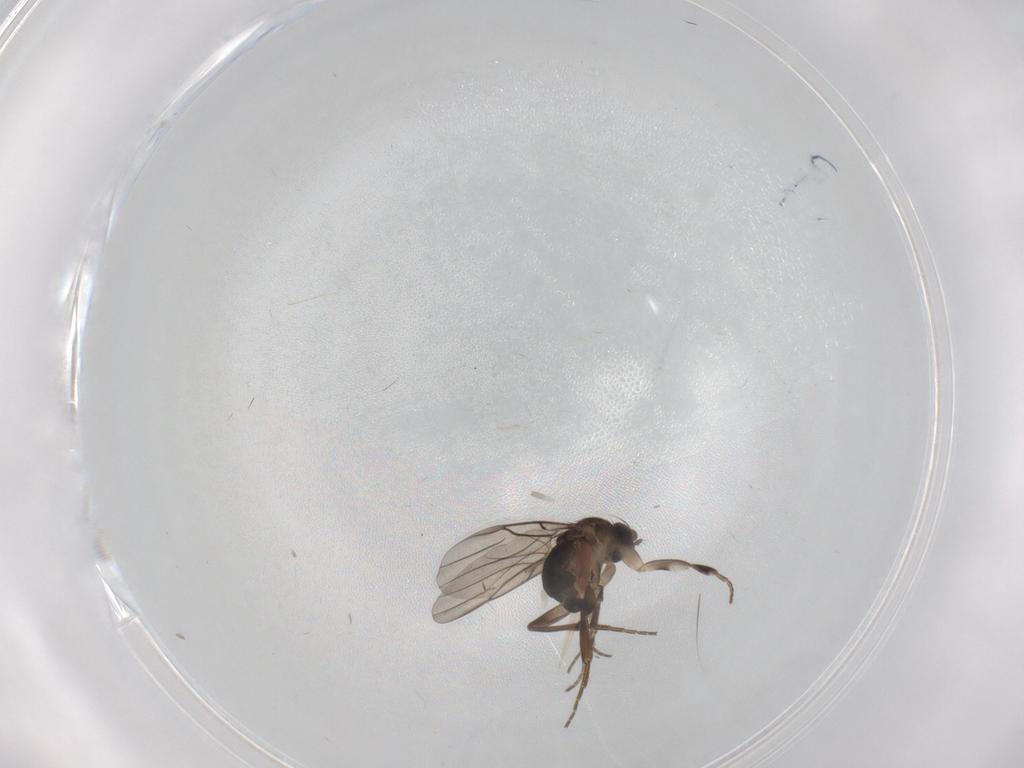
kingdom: Animalia
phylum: Arthropoda
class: Insecta
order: Diptera
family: Phoridae
